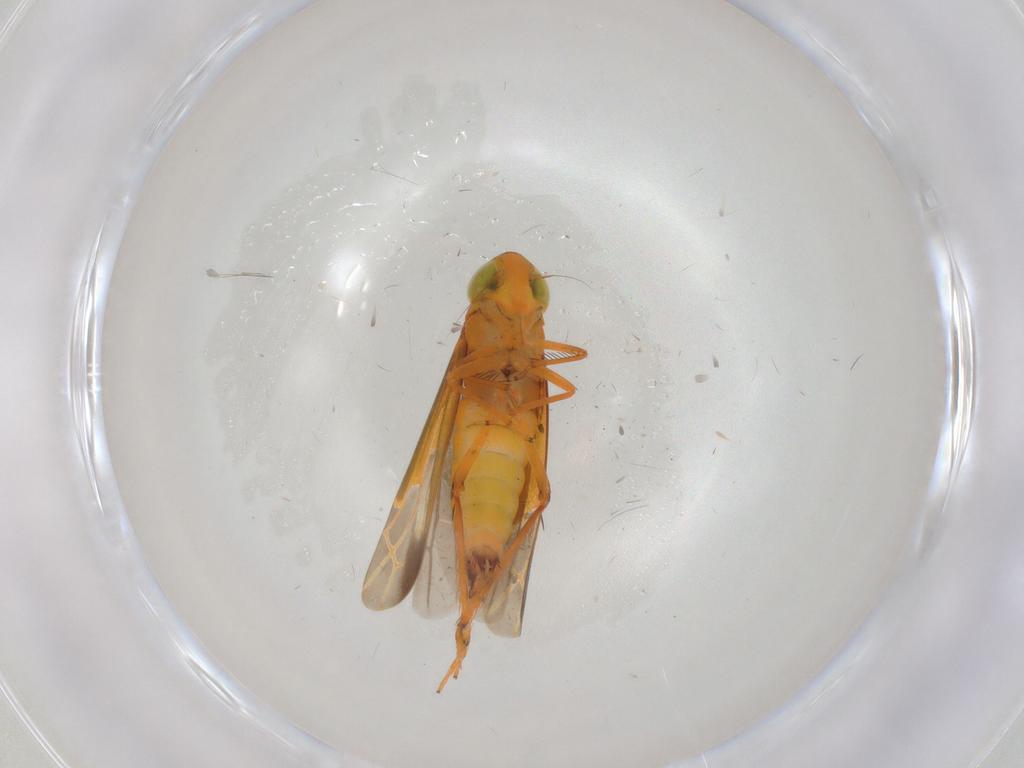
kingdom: Animalia
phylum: Arthropoda
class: Insecta
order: Hemiptera
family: Cicadellidae
